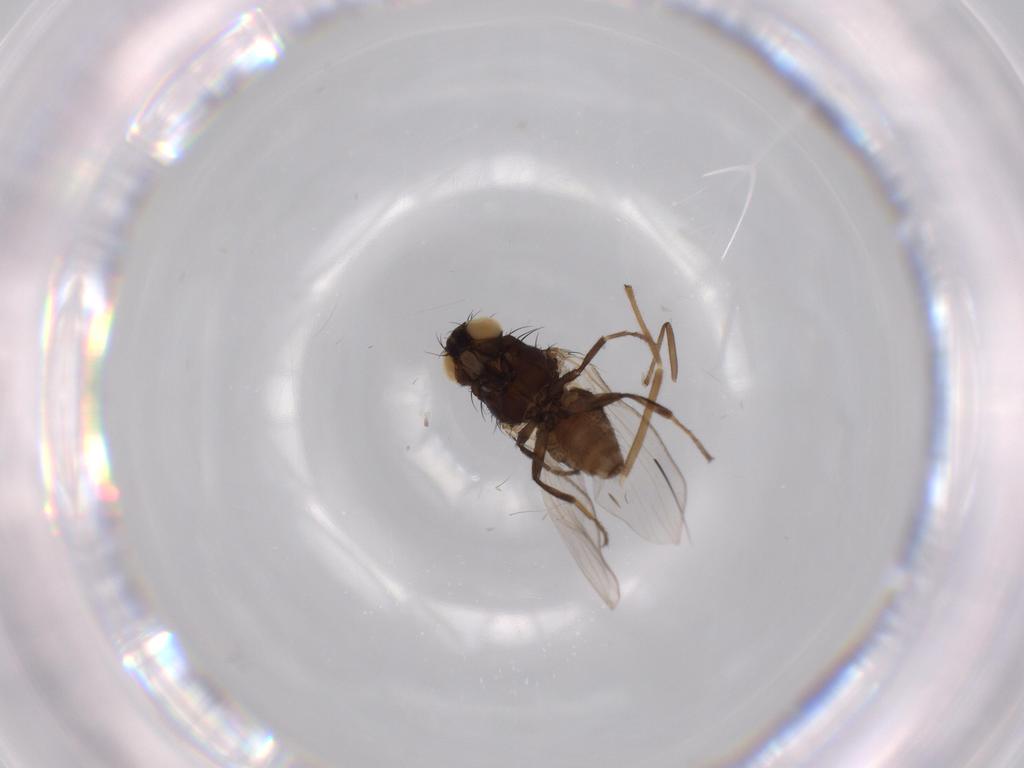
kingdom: Animalia
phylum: Arthropoda
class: Insecta
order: Diptera
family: Carnidae
